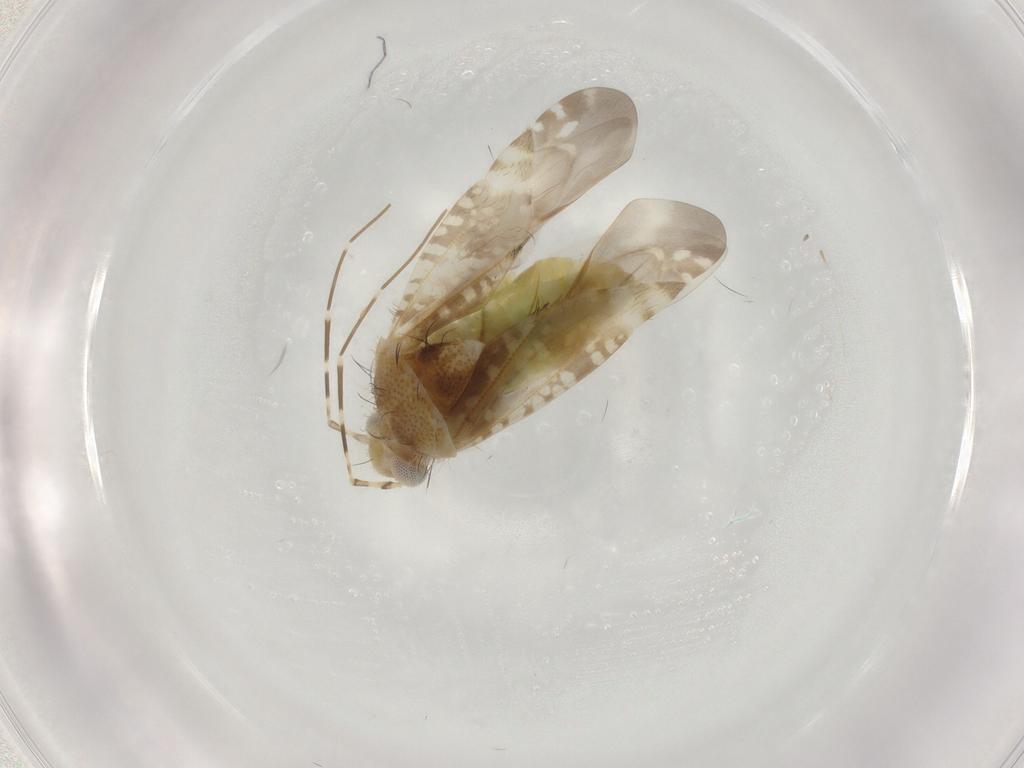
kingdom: Animalia
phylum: Arthropoda
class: Insecta
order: Hemiptera
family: Miridae
